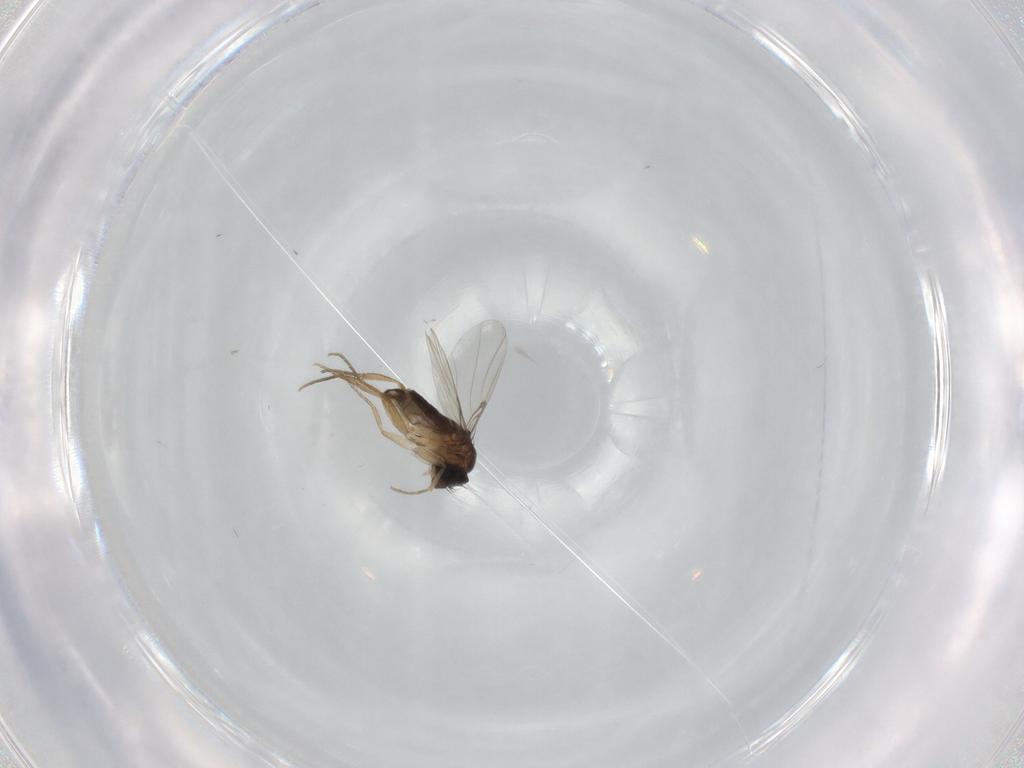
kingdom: Animalia
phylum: Arthropoda
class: Insecta
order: Diptera
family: Phoridae
